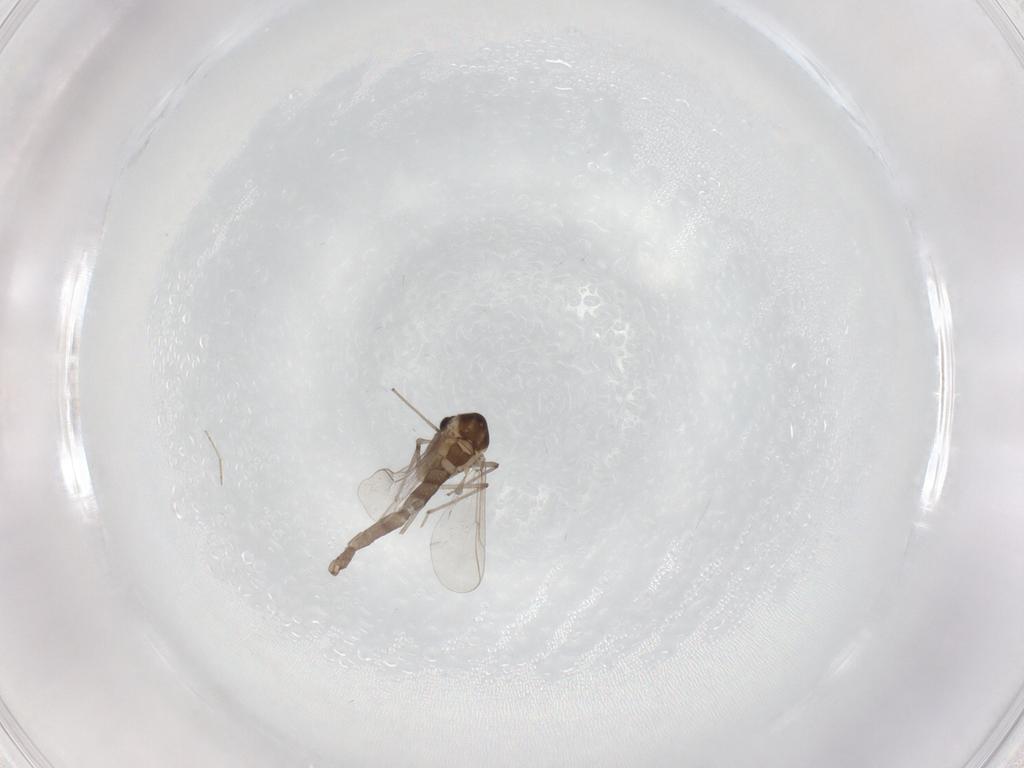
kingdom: Animalia
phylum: Arthropoda
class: Insecta
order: Diptera
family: Chironomidae
